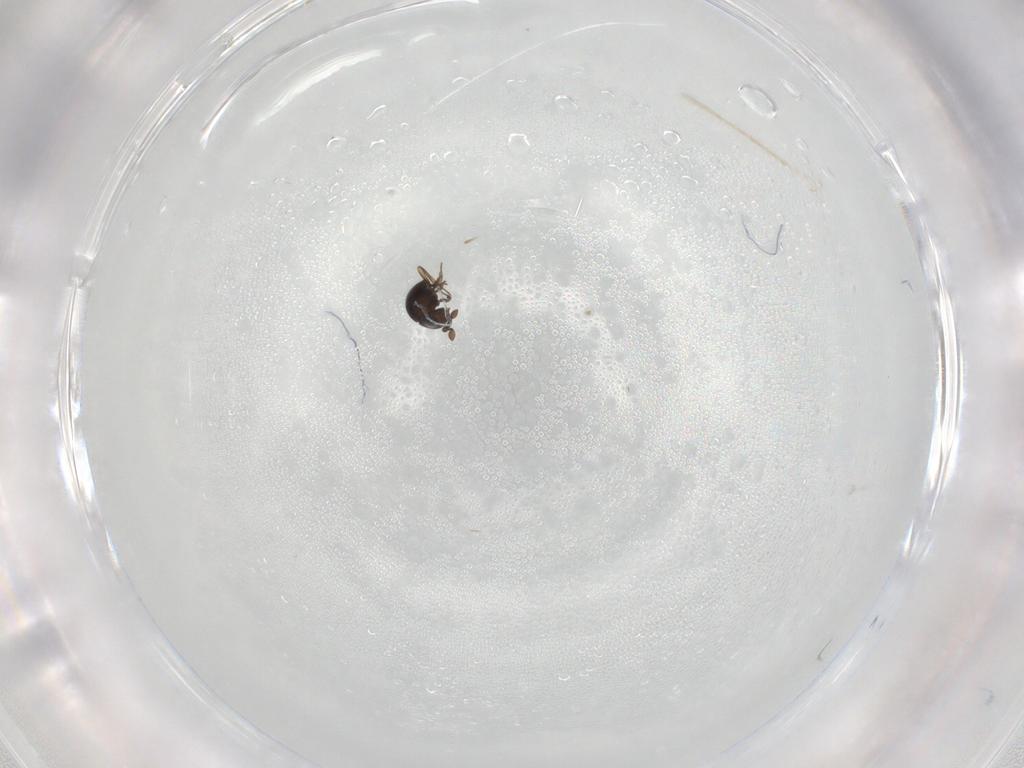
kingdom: Animalia
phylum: Arthropoda
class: Insecta
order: Hymenoptera
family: Scelionidae
